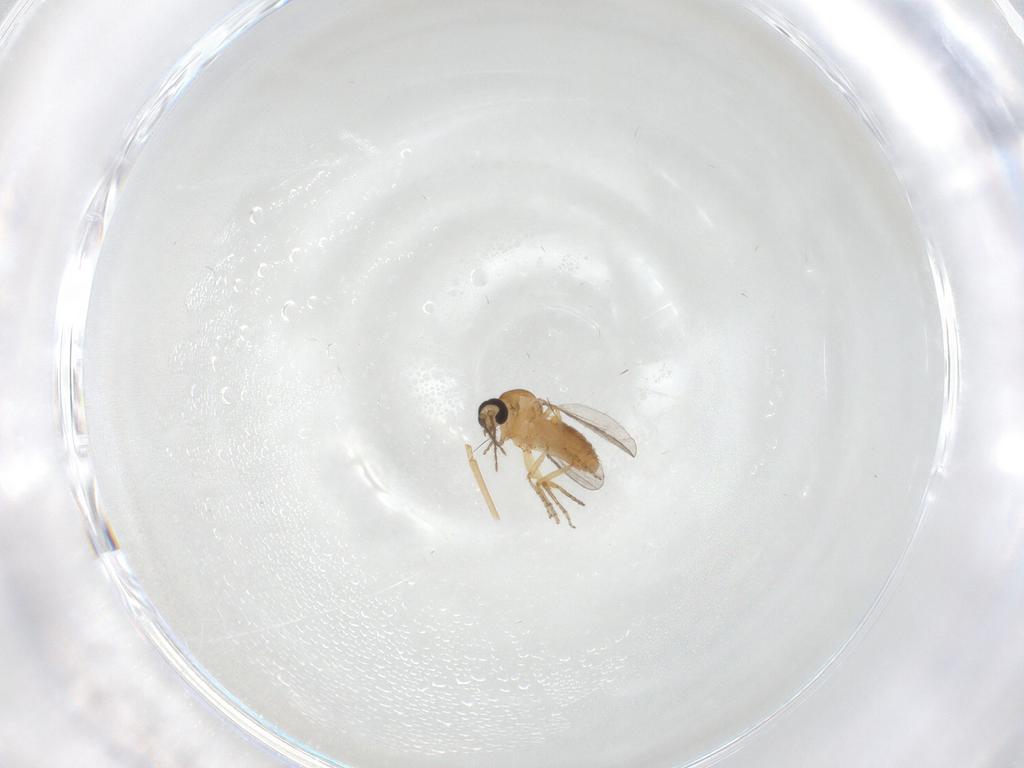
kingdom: Animalia
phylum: Arthropoda
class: Insecta
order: Diptera
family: Ceratopogonidae
